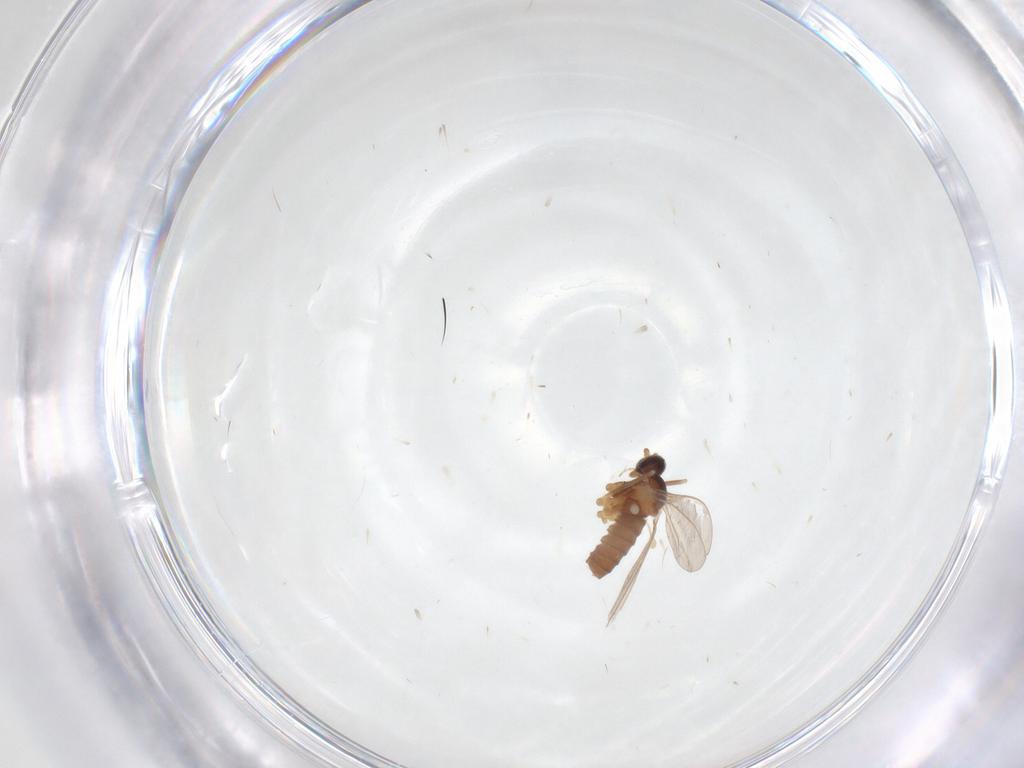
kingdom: Animalia
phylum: Arthropoda
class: Insecta
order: Diptera
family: Cecidomyiidae
